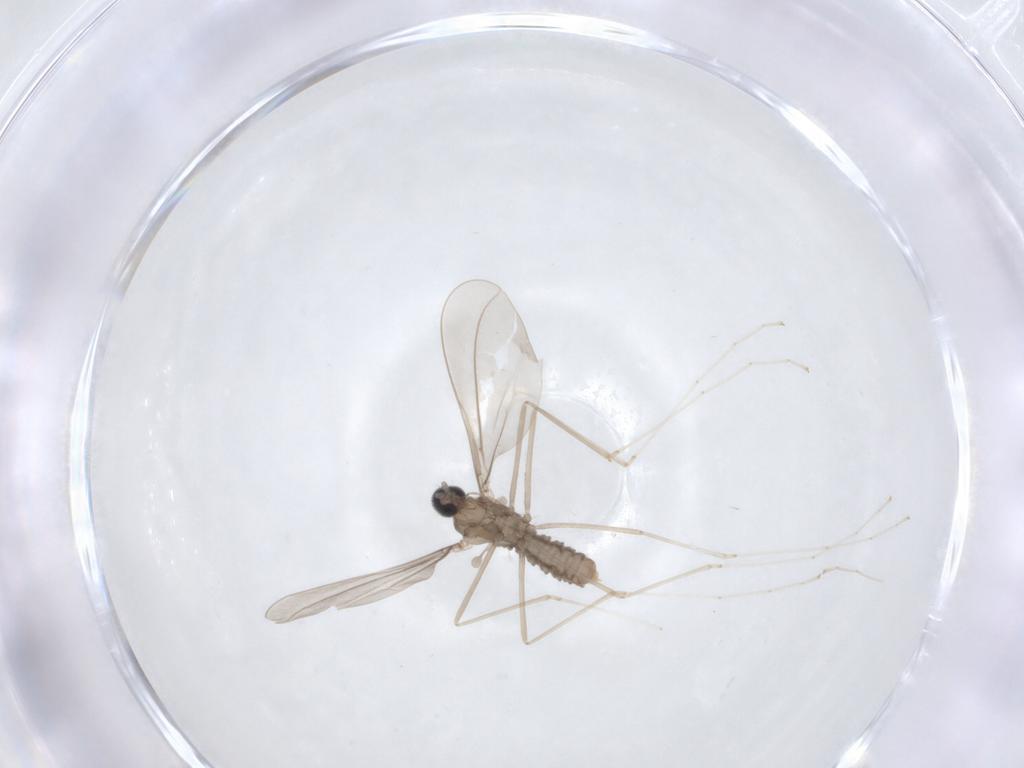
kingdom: Animalia
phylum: Arthropoda
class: Insecta
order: Diptera
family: Cecidomyiidae
